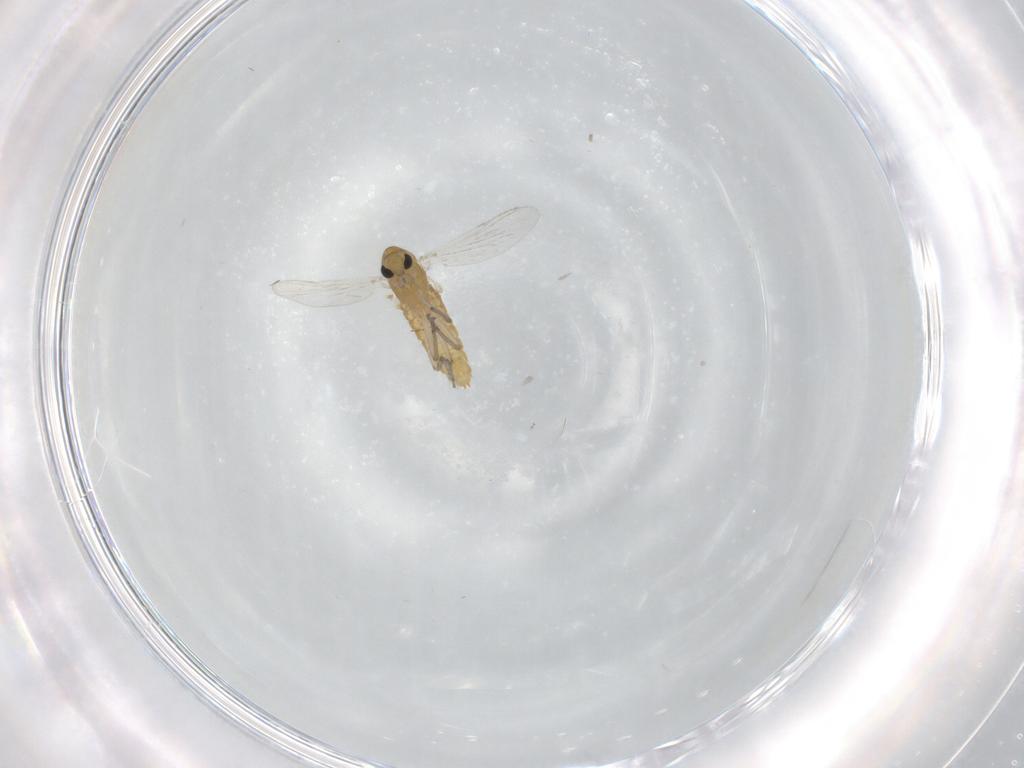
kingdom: Animalia
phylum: Arthropoda
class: Insecta
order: Diptera
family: Chironomidae
